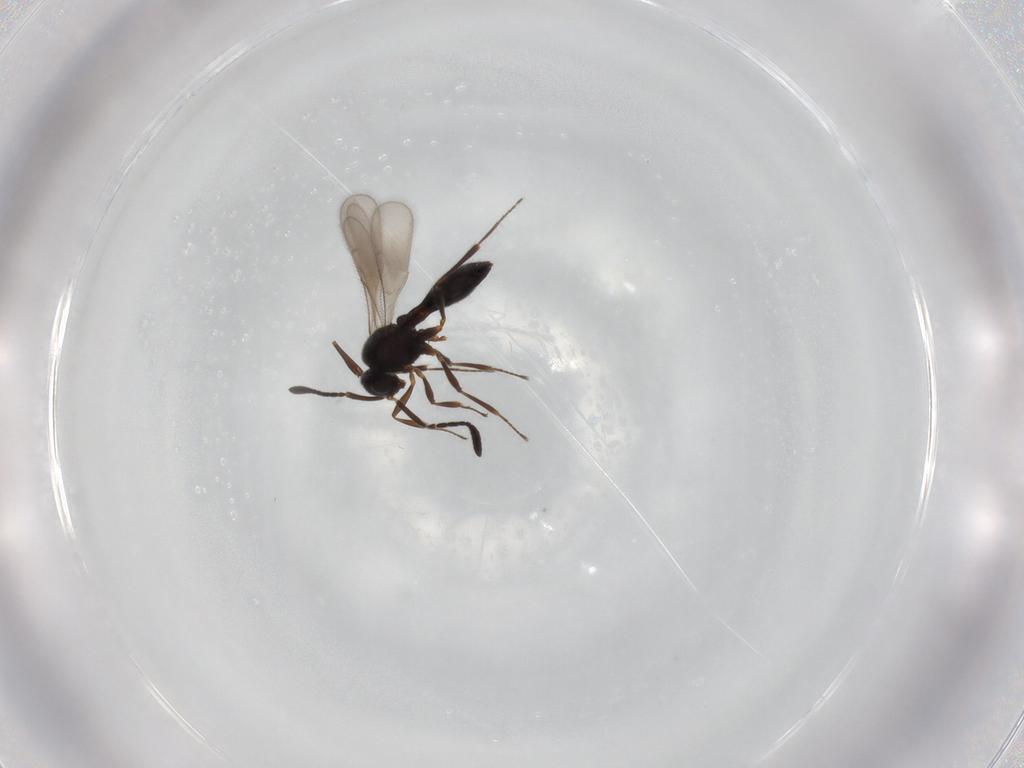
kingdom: Animalia
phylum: Arthropoda
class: Insecta
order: Hymenoptera
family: Scelionidae
